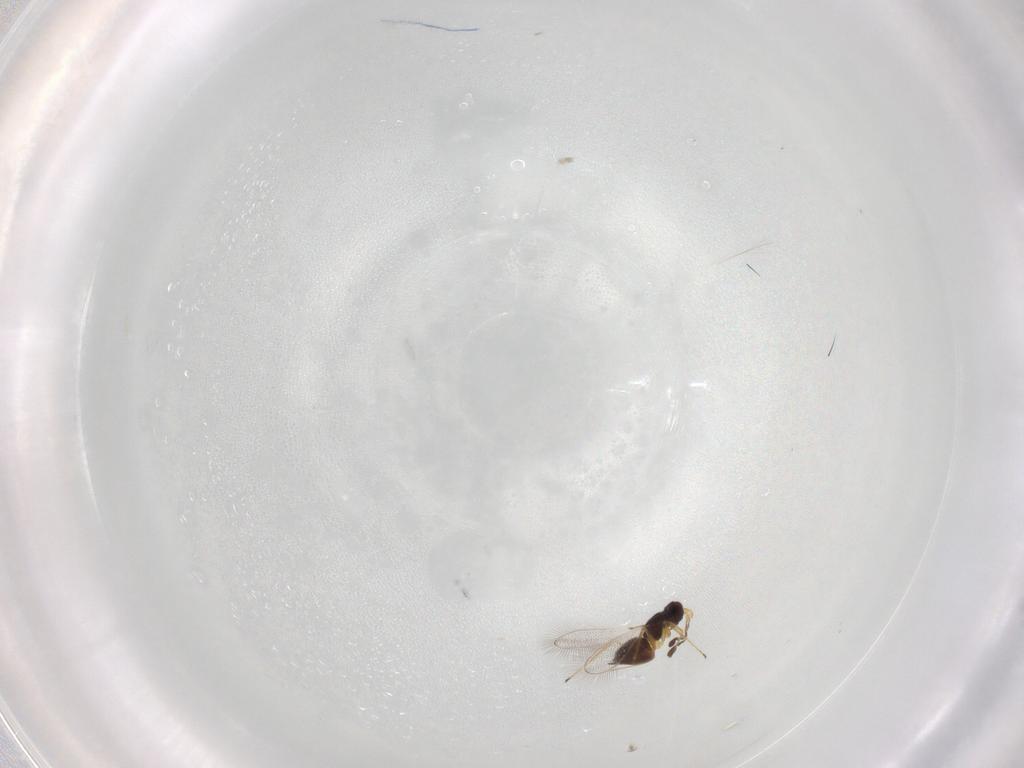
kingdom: Animalia
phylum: Arthropoda
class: Insecta
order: Hymenoptera
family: Mymaridae
